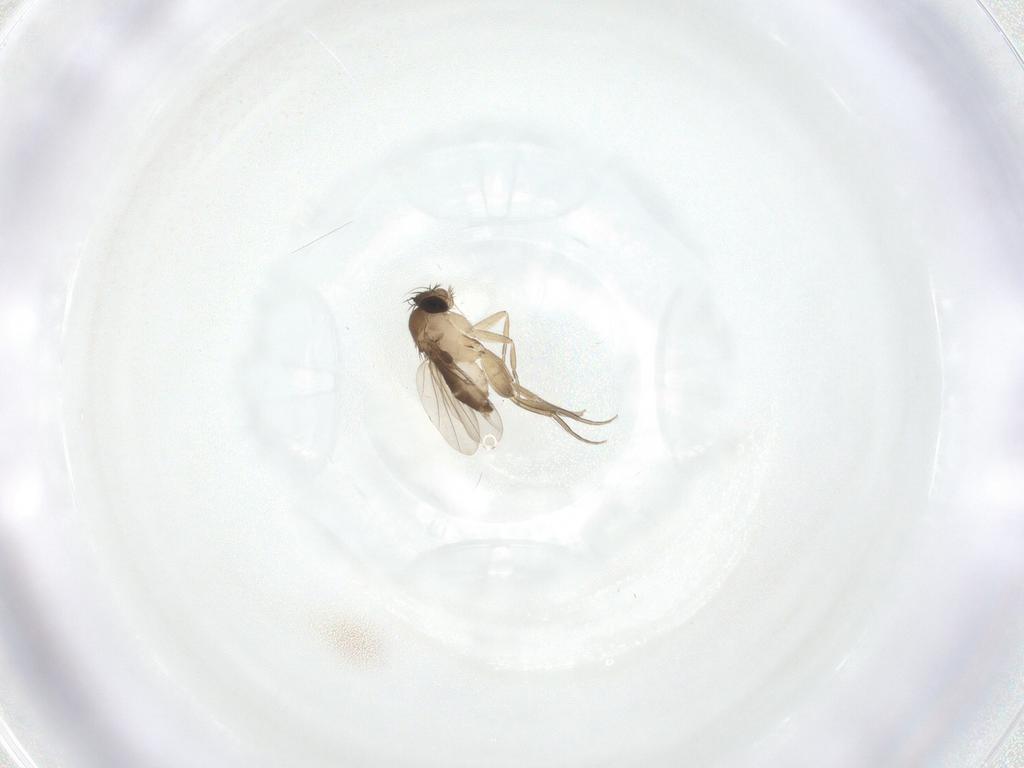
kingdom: Animalia
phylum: Arthropoda
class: Insecta
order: Diptera
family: Phoridae
